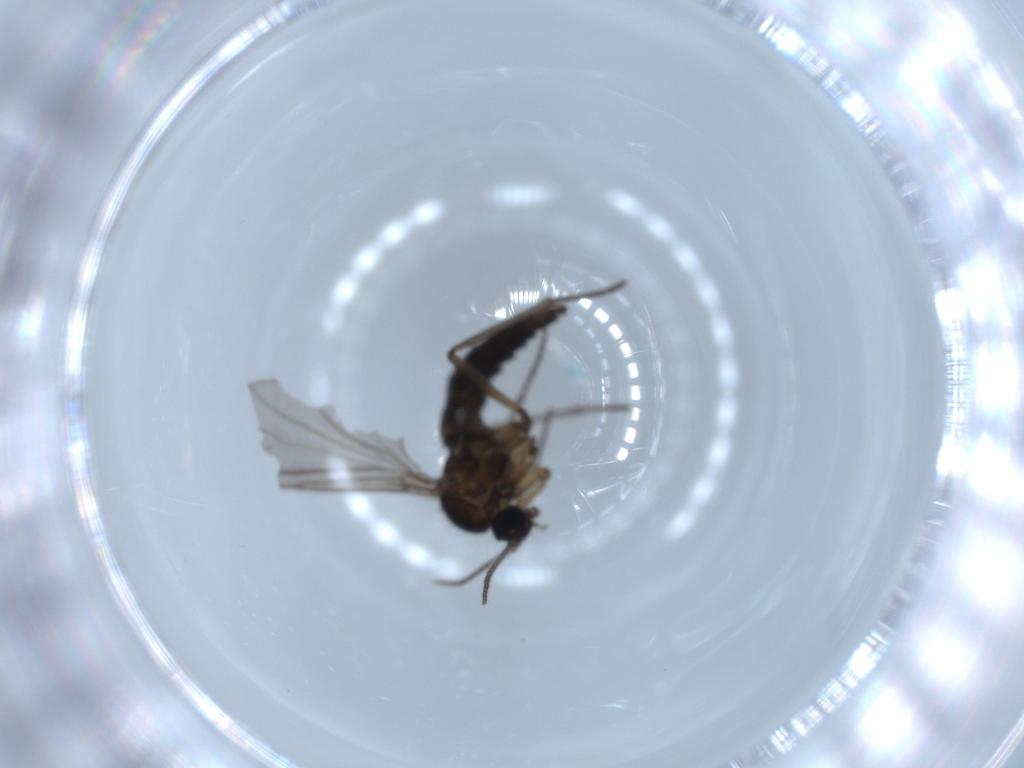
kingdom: Animalia
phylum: Arthropoda
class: Insecta
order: Diptera
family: Sciaridae
